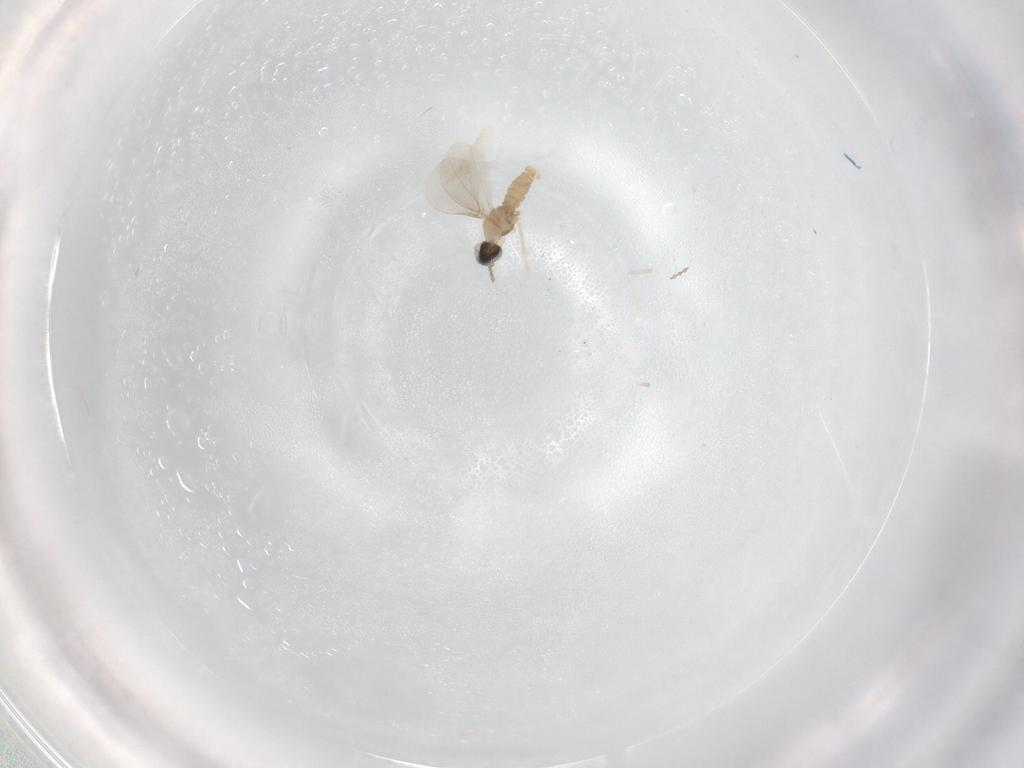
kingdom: Animalia
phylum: Arthropoda
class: Insecta
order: Diptera
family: Cecidomyiidae
